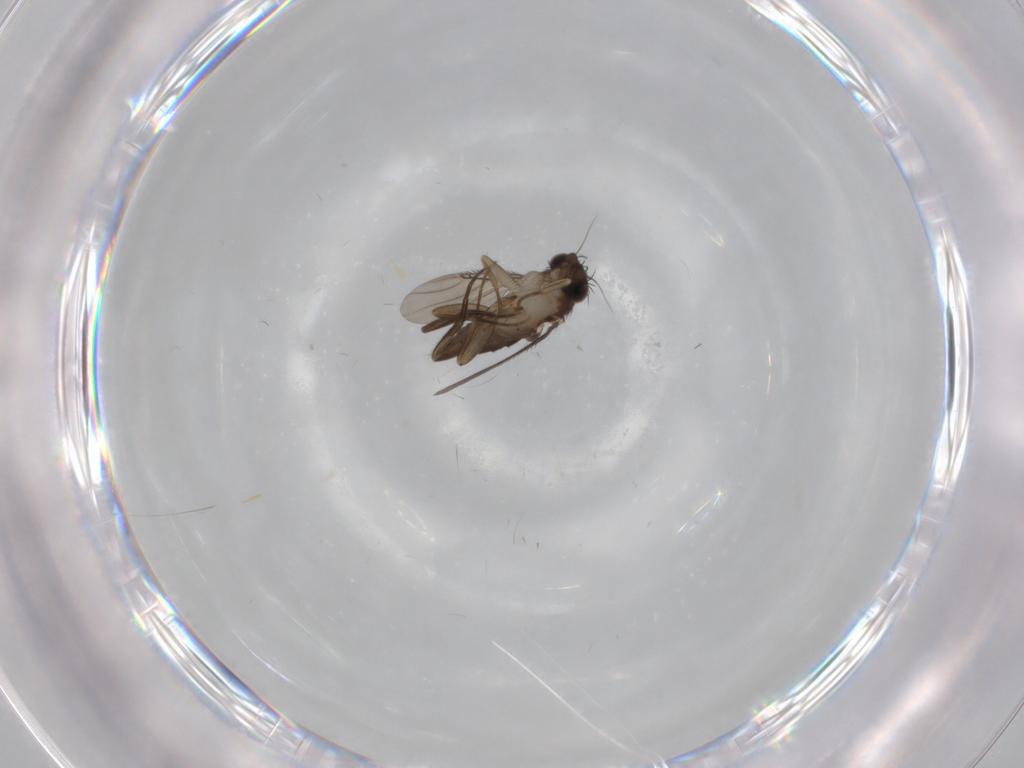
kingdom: Animalia
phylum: Arthropoda
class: Insecta
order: Diptera
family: Phoridae
